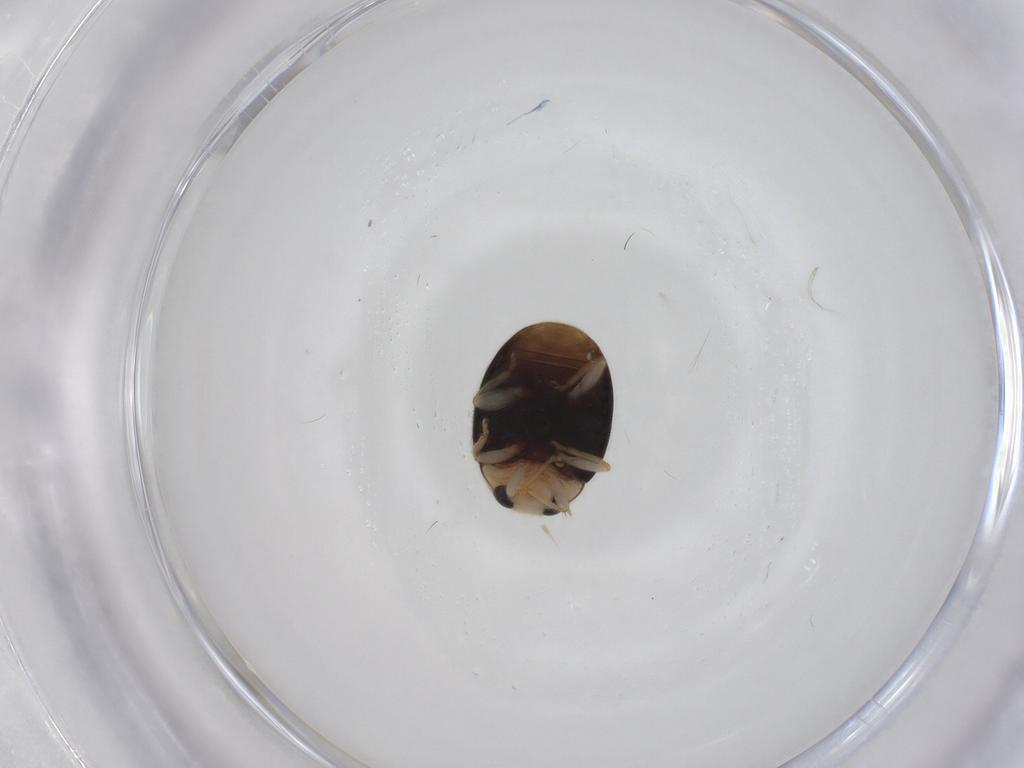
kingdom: Animalia
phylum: Arthropoda
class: Insecta
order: Coleoptera
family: Coccinellidae
